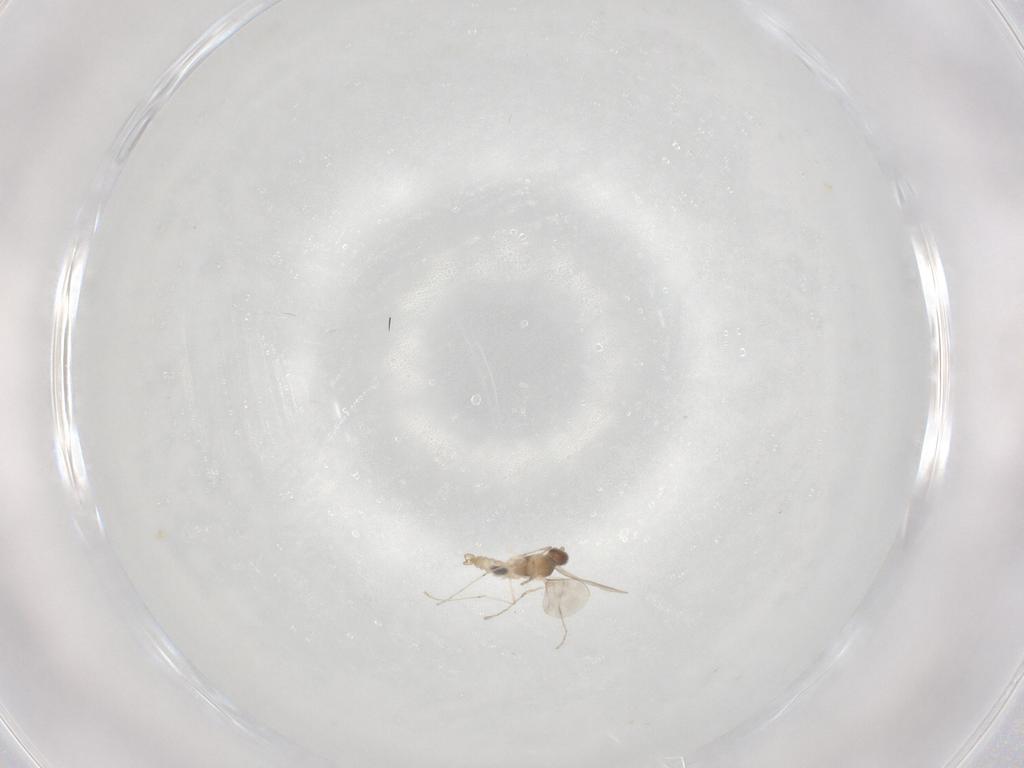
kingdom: Animalia
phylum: Arthropoda
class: Insecta
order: Diptera
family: Cecidomyiidae
